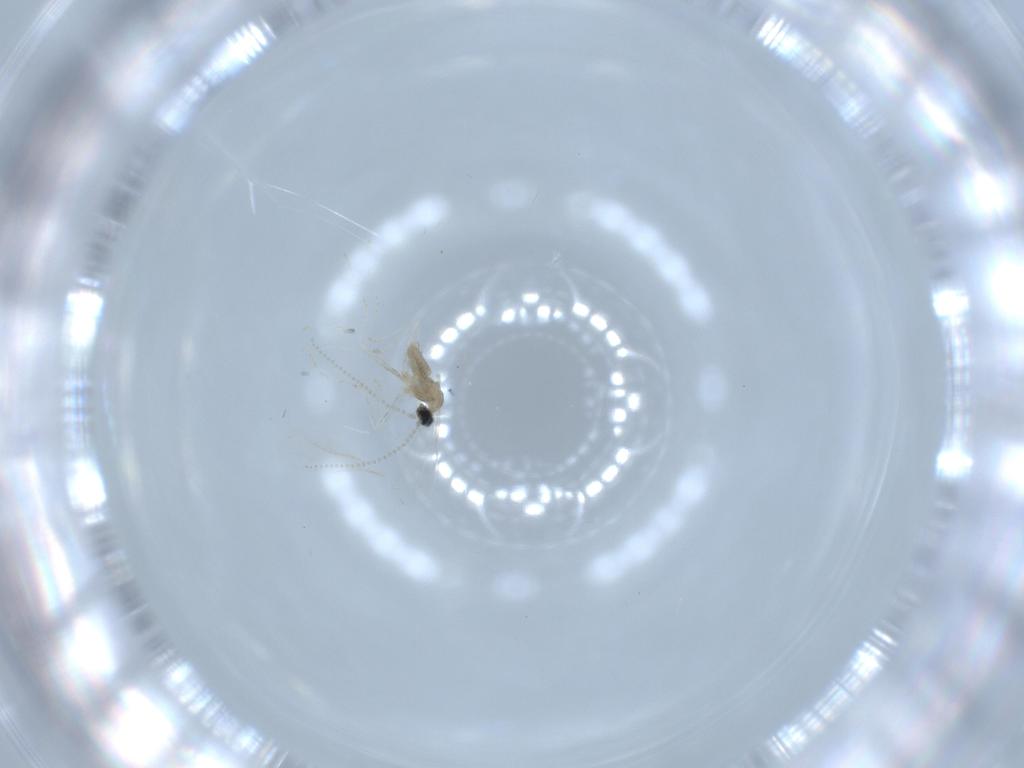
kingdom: Animalia
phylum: Arthropoda
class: Insecta
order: Diptera
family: Cecidomyiidae
